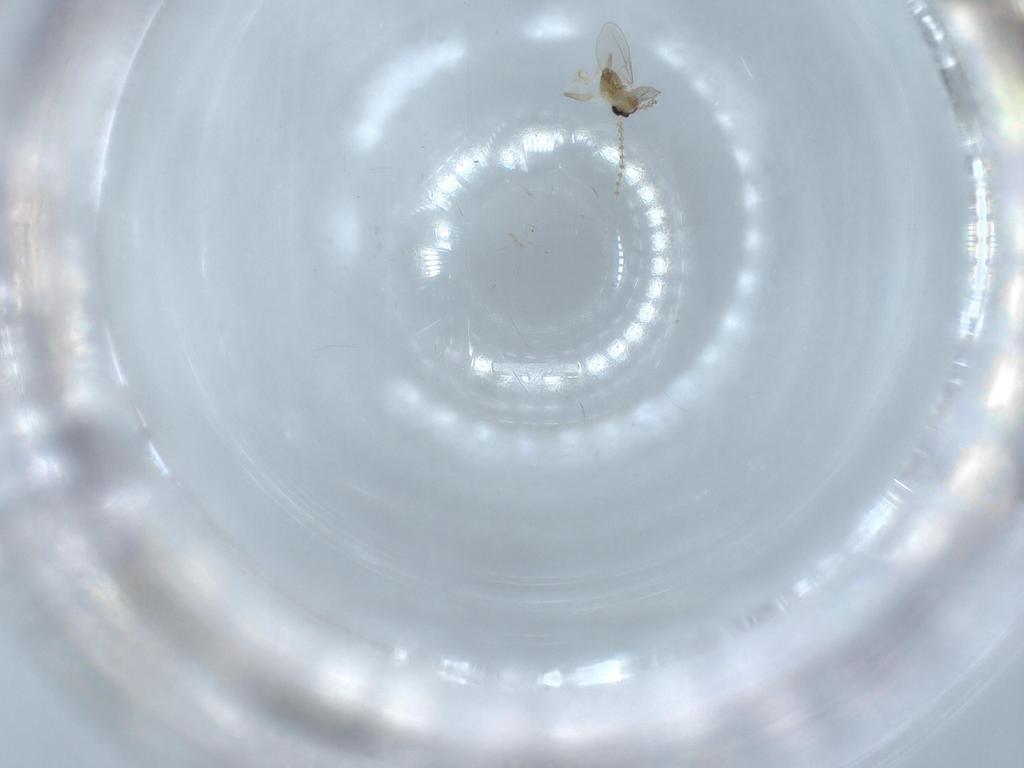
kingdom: Animalia
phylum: Arthropoda
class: Insecta
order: Diptera
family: Cecidomyiidae
